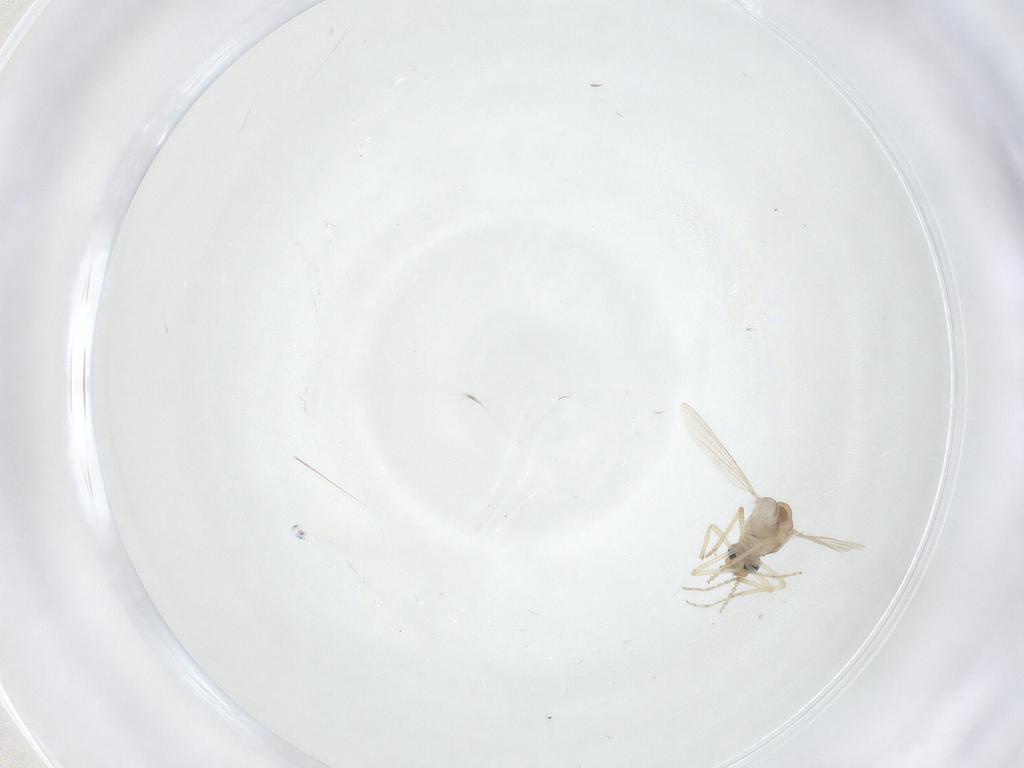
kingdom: Animalia
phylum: Arthropoda
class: Insecta
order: Diptera
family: Ceratopogonidae
